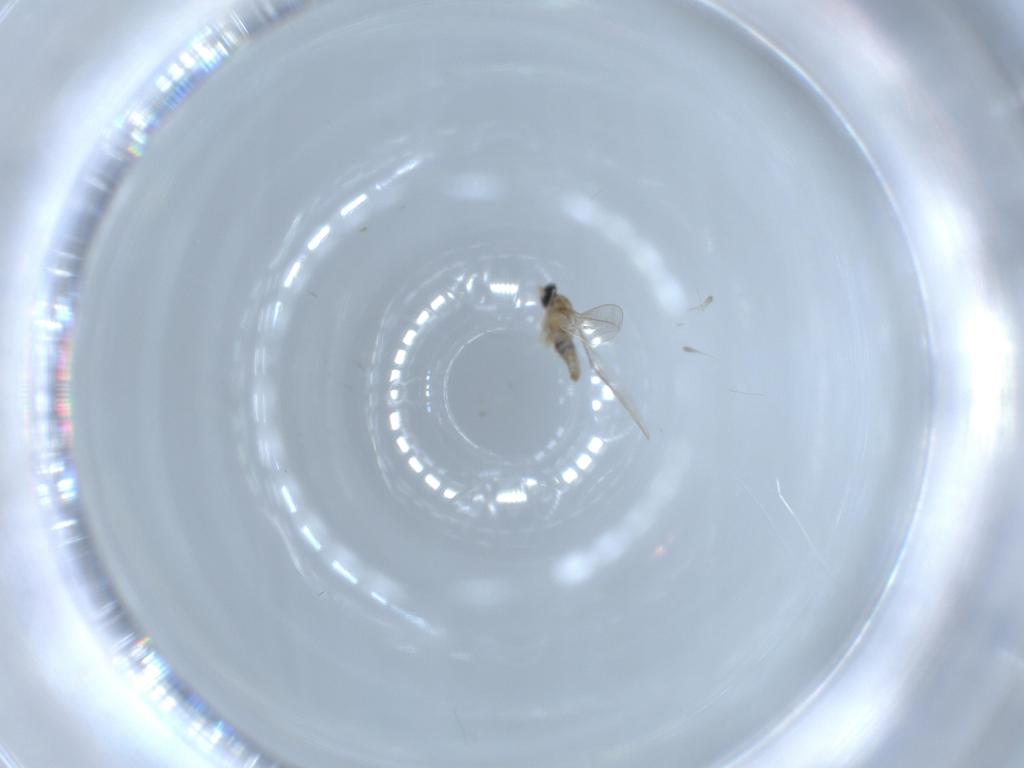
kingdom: Animalia
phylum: Arthropoda
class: Insecta
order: Diptera
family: Cecidomyiidae
